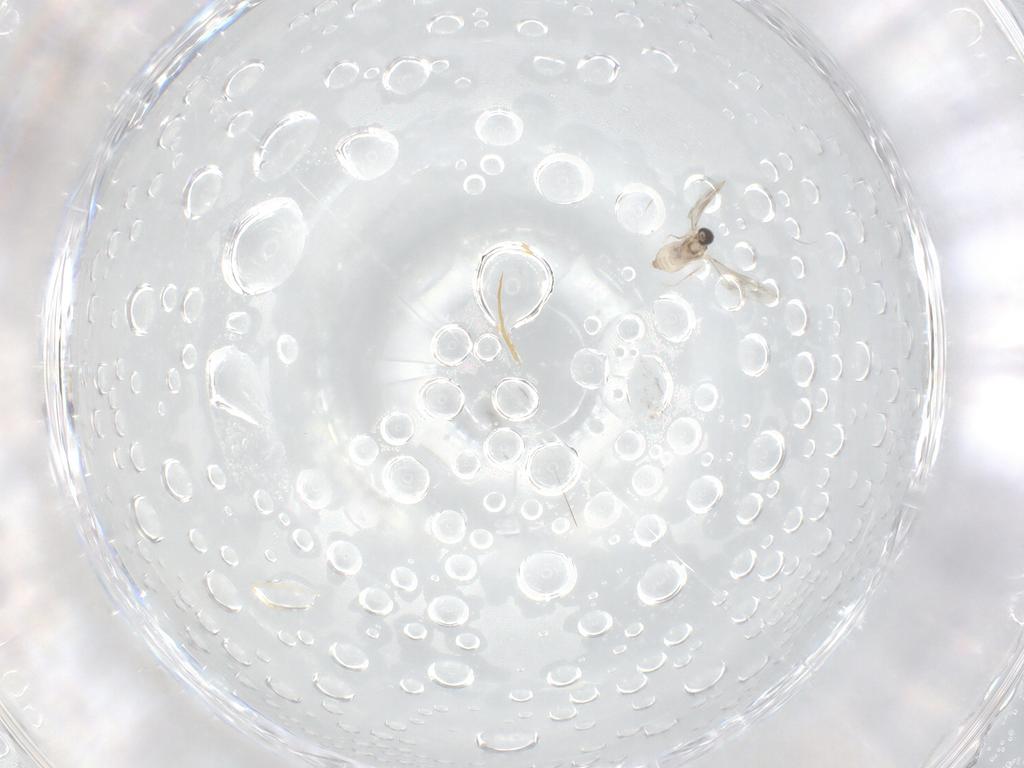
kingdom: Animalia
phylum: Arthropoda
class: Insecta
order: Diptera
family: Cecidomyiidae
